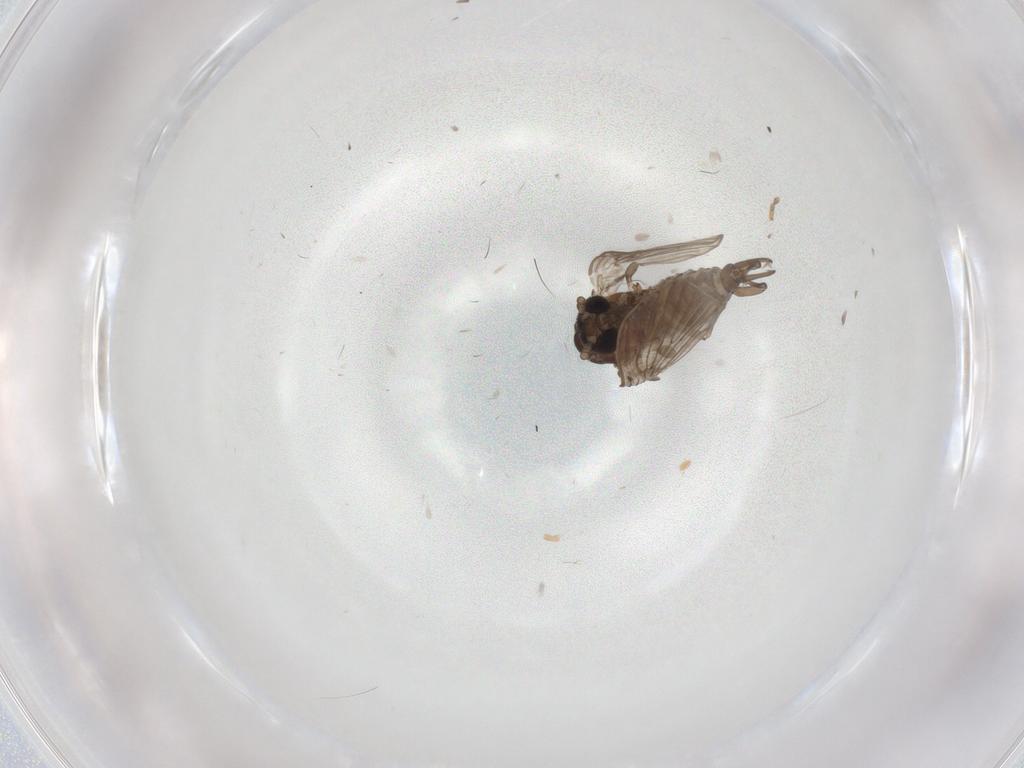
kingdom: Animalia
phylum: Arthropoda
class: Insecta
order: Diptera
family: Psychodidae
